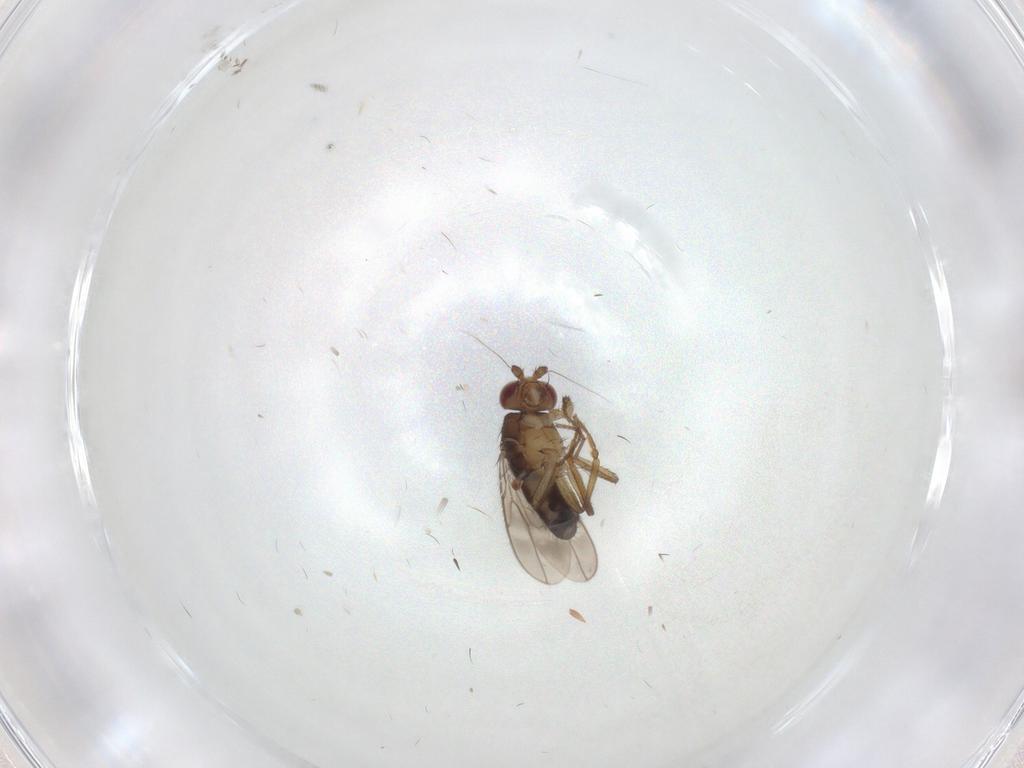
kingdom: Animalia
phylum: Arthropoda
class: Insecta
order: Diptera
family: Sphaeroceridae
